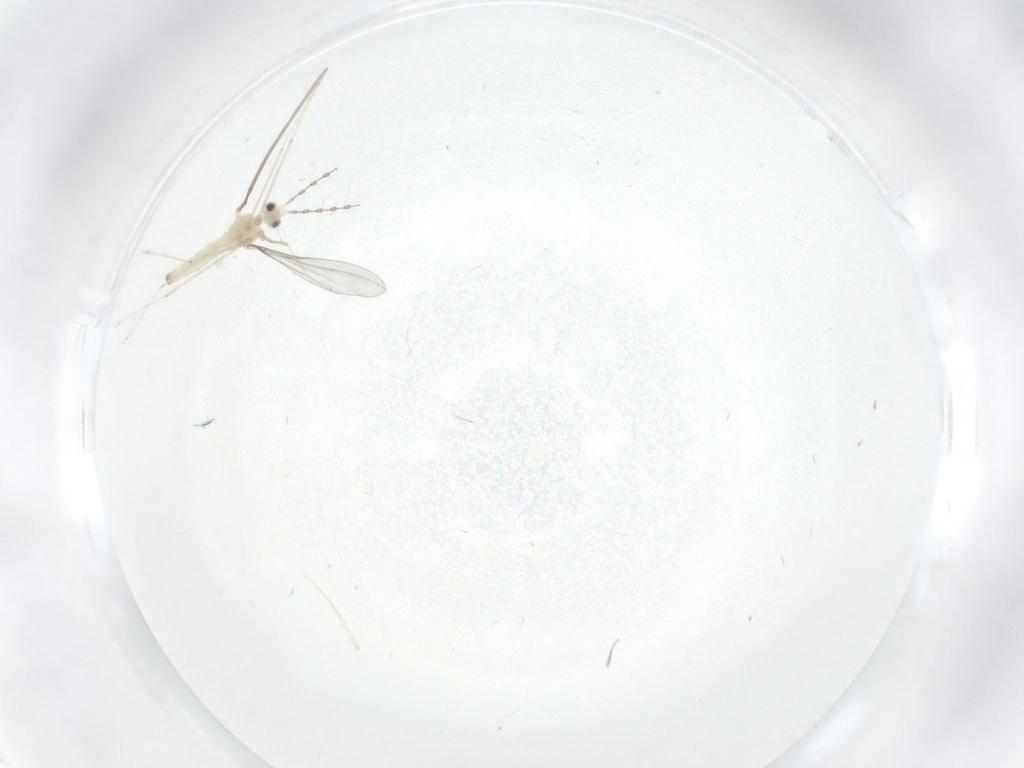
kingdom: Animalia
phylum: Arthropoda
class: Insecta
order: Diptera
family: Cecidomyiidae
